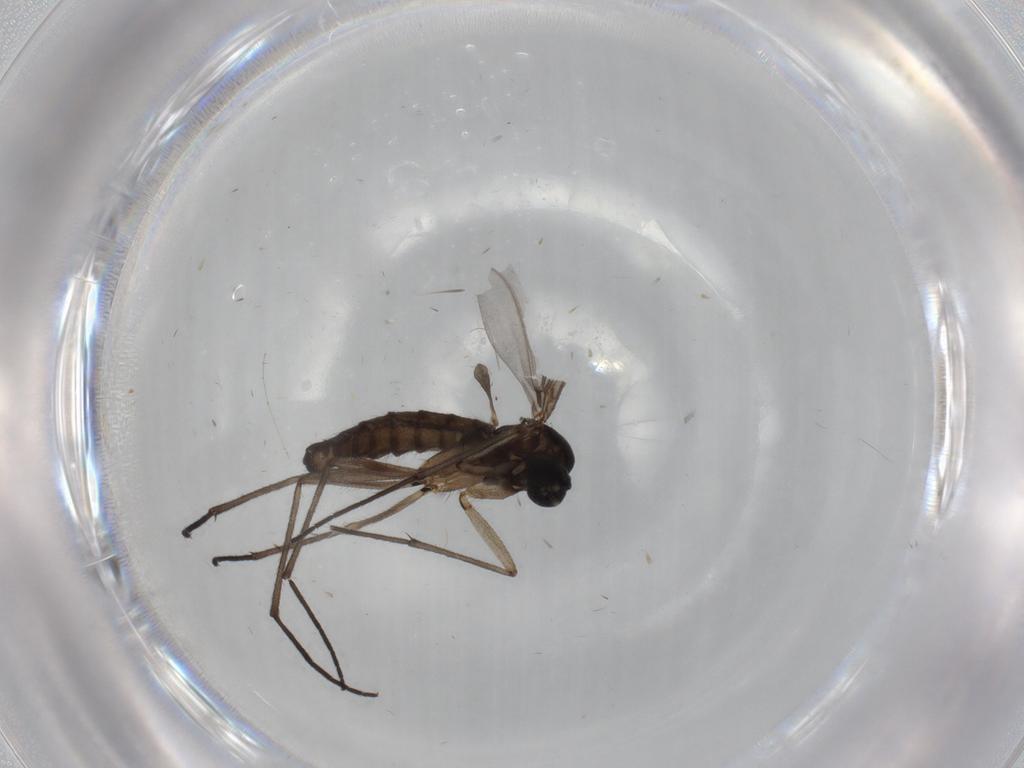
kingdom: Animalia
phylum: Arthropoda
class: Insecta
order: Diptera
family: Cecidomyiidae
